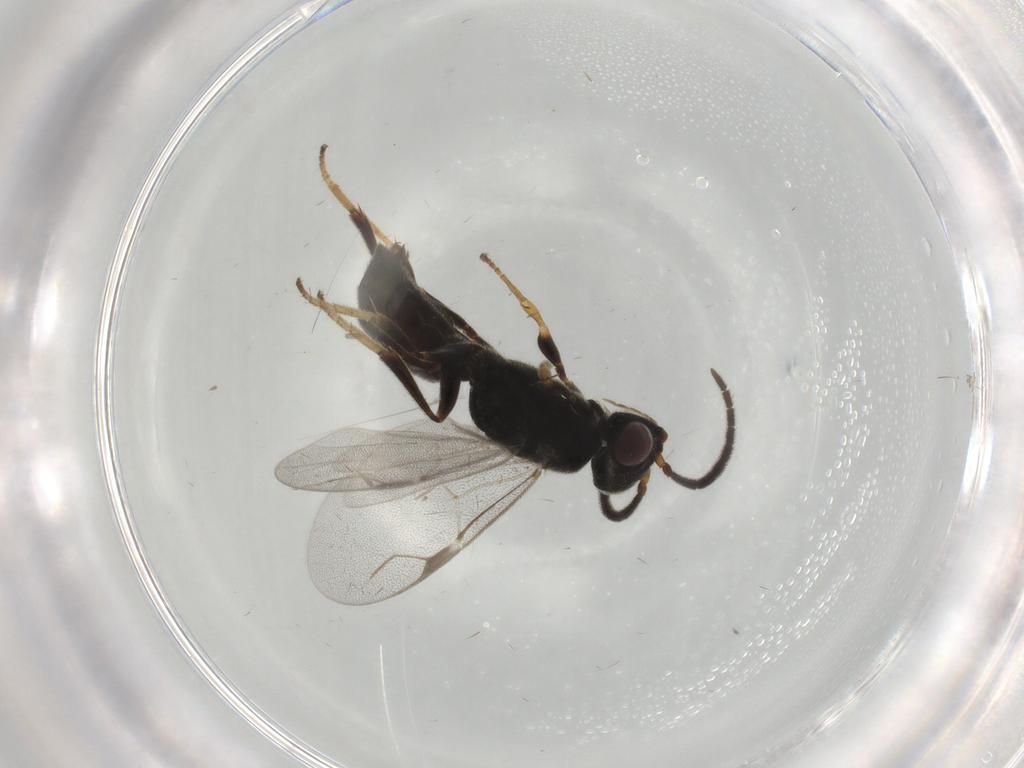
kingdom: Animalia
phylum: Arthropoda
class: Insecta
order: Hymenoptera
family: Dryinidae
